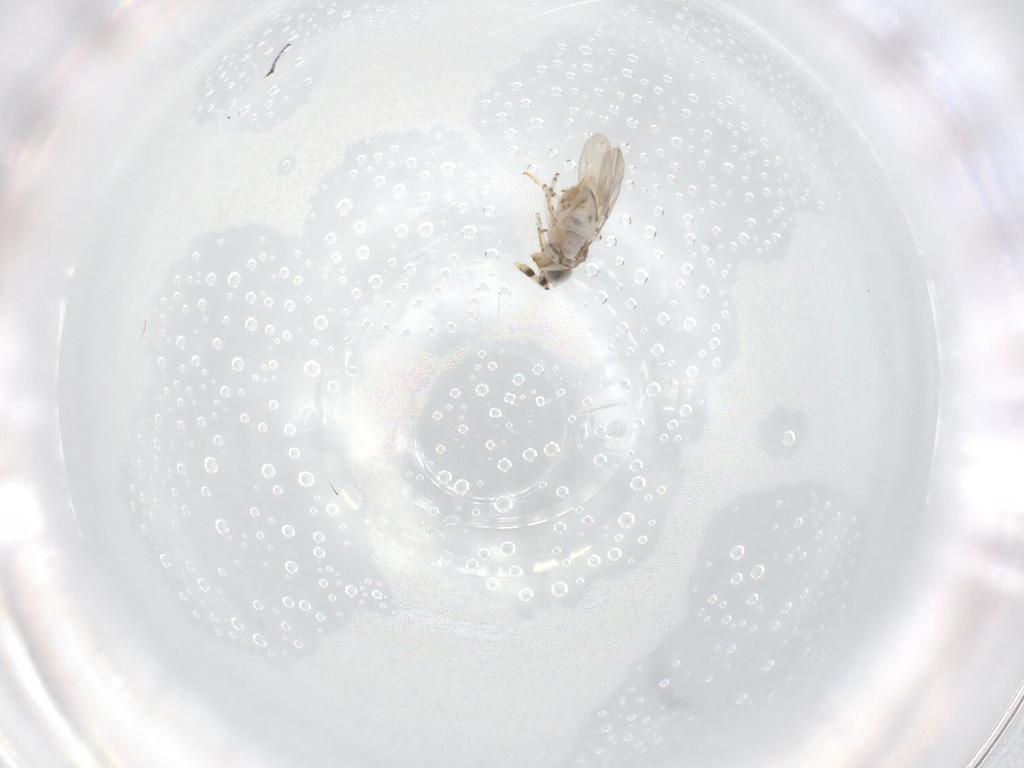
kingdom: Animalia
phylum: Arthropoda
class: Insecta
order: Hymenoptera
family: Encyrtidae
